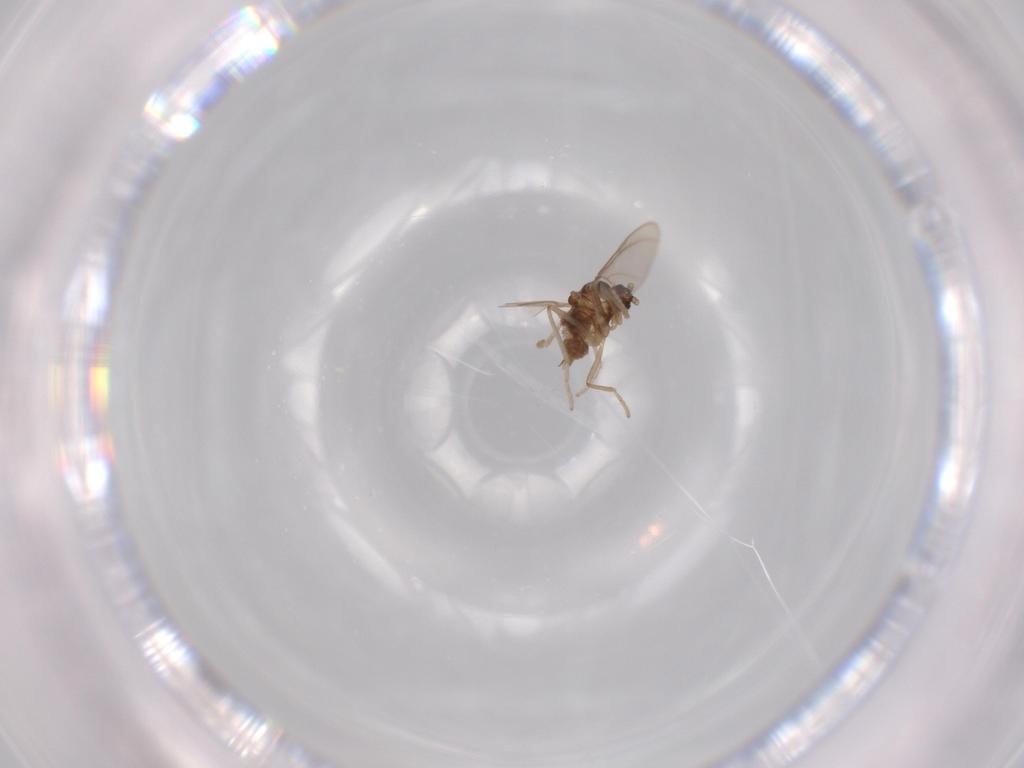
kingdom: Animalia
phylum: Arthropoda
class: Insecta
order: Diptera
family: Cecidomyiidae
